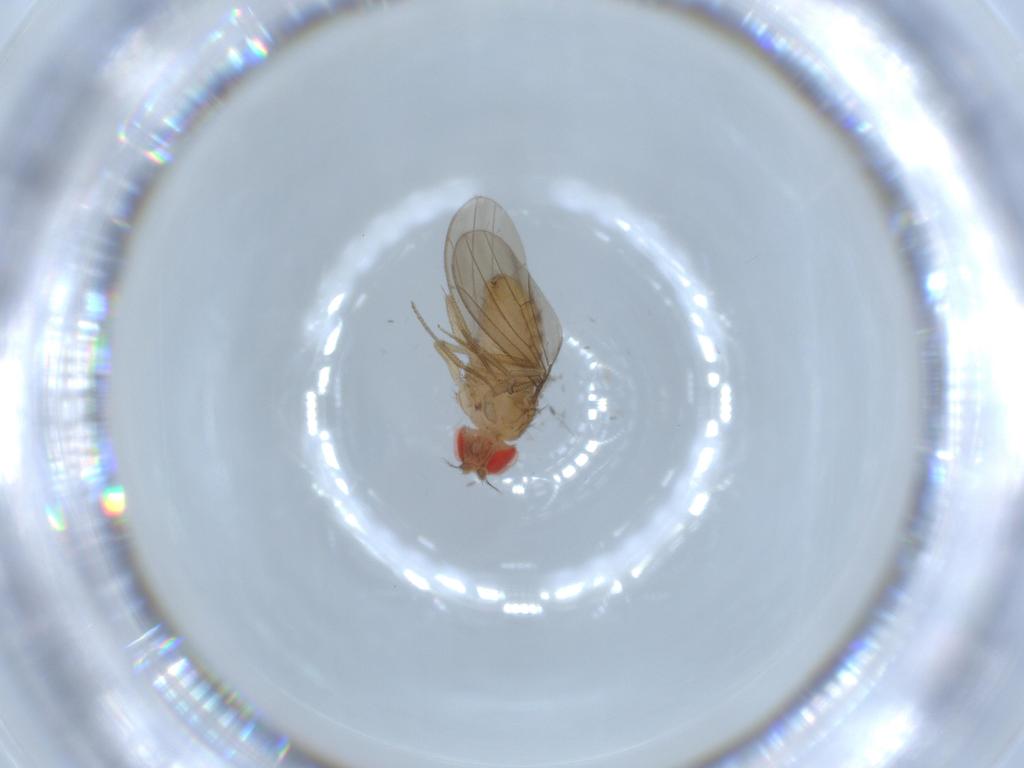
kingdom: Animalia
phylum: Arthropoda
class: Insecta
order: Diptera
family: Drosophilidae
